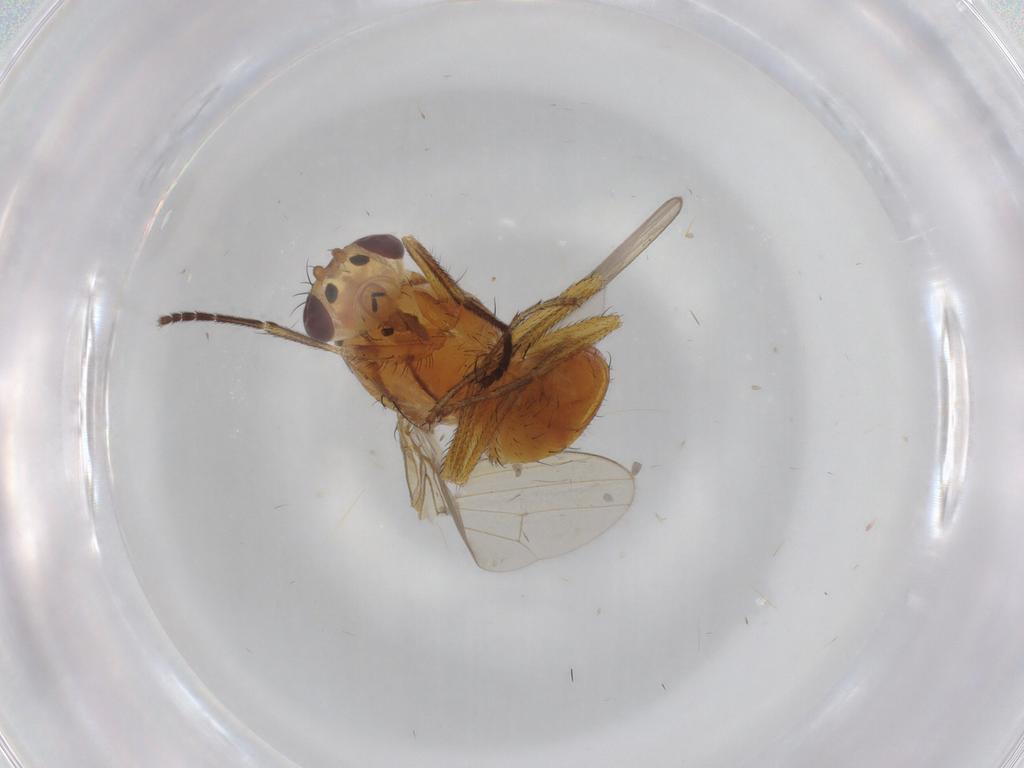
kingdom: Animalia
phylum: Arthropoda
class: Insecta
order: Diptera
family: Lauxaniidae
